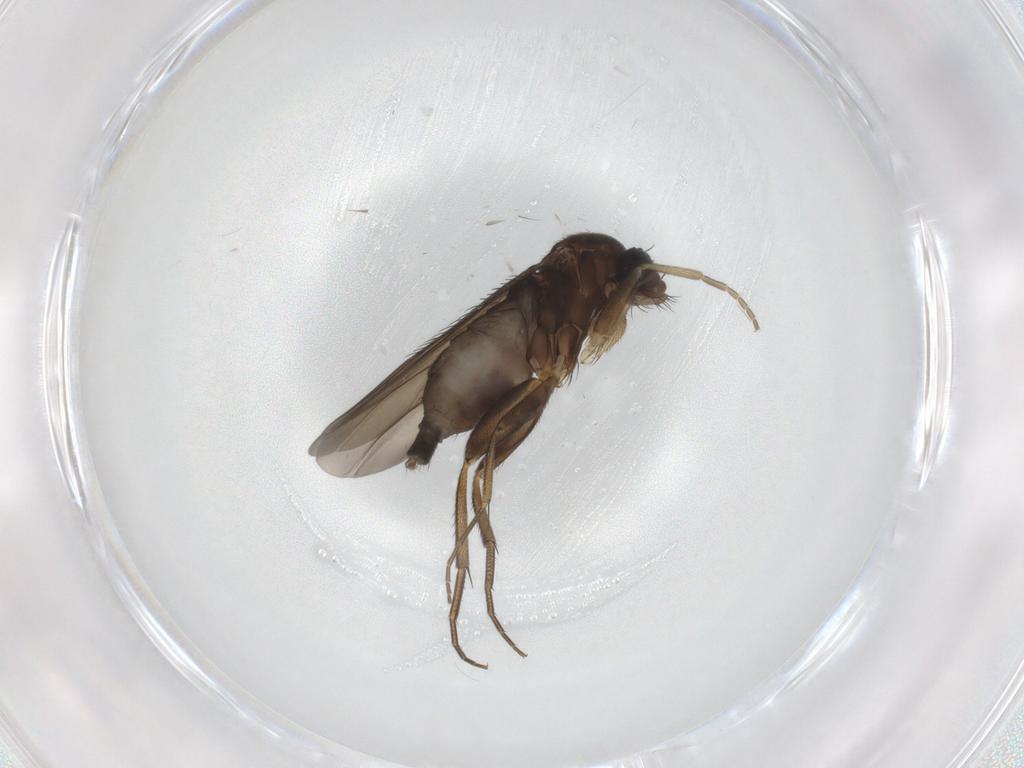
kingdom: Animalia
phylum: Arthropoda
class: Insecta
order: Diptera
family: Phoridae
